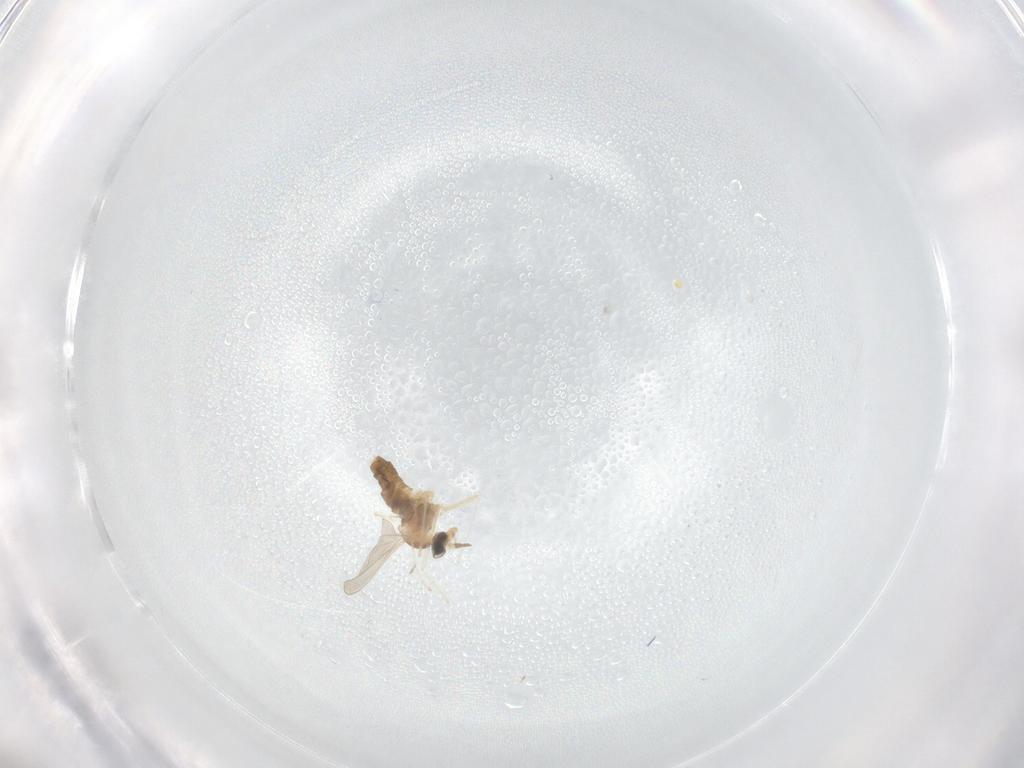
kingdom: Animalia
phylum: Arthropoda
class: Insecta
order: Diptera
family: Cecidomyiidae
